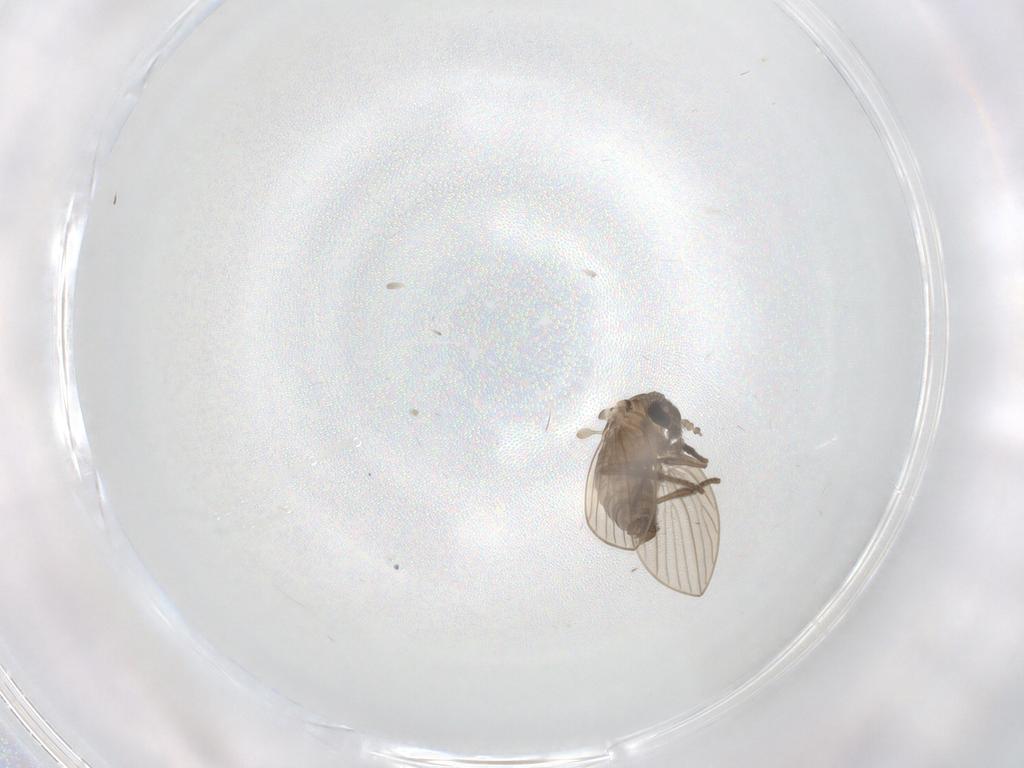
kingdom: Animalia
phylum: Arthropoda
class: Insecta
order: Diptera
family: Psychodidae
